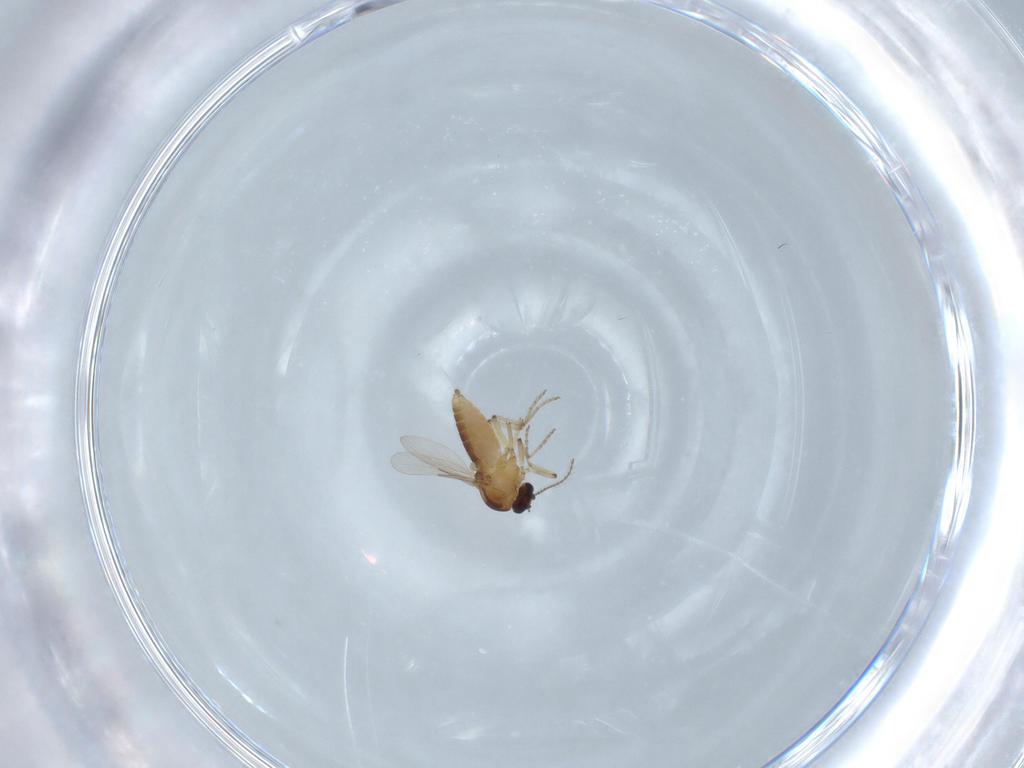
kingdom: Animalia
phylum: Arthropoda
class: Insecta
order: Diptera
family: Ceratopogonidae
